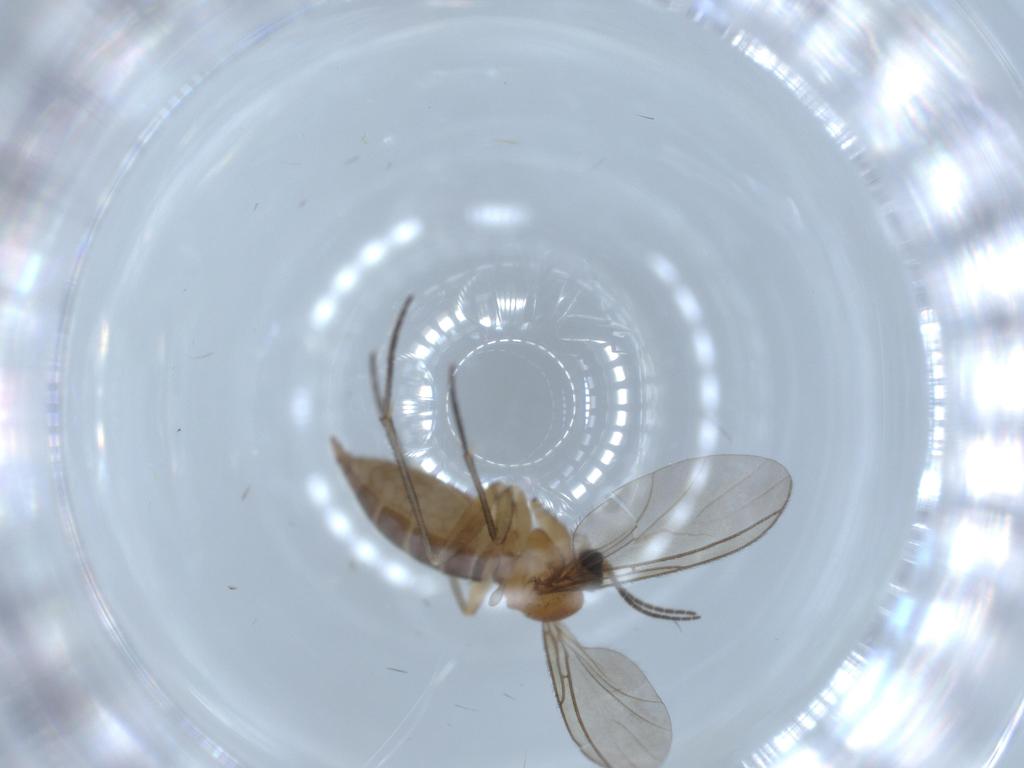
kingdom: Animalia
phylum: Arthropoda
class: Insecta
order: Diptera
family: Sciaridae
